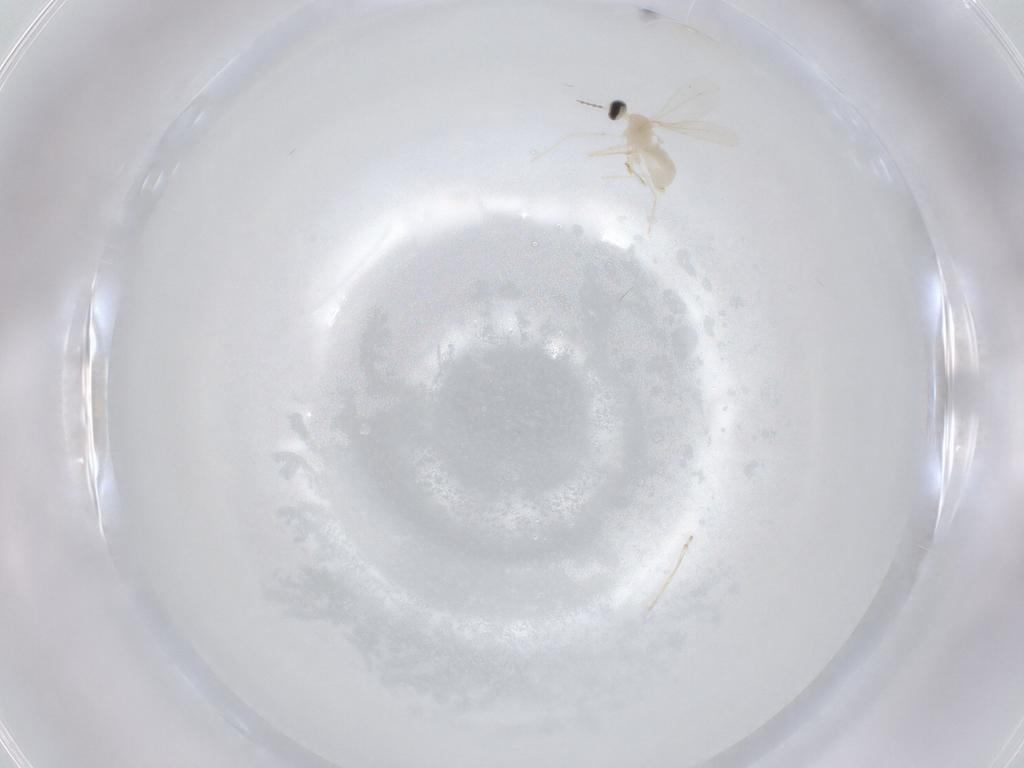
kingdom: Animalia
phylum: Arthropoda
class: Insecta
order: Diptera
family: Cecidomyiidae
